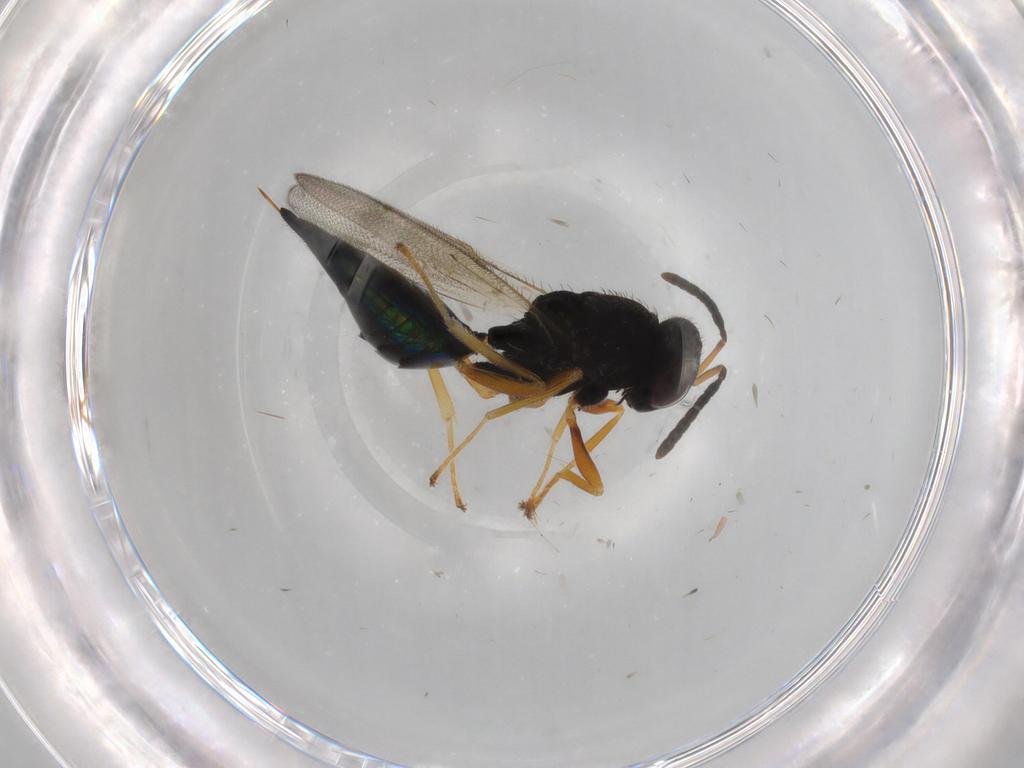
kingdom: Animalia
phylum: Arthropoda
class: Insecta
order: Hymenoptera
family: Pteromalidae
